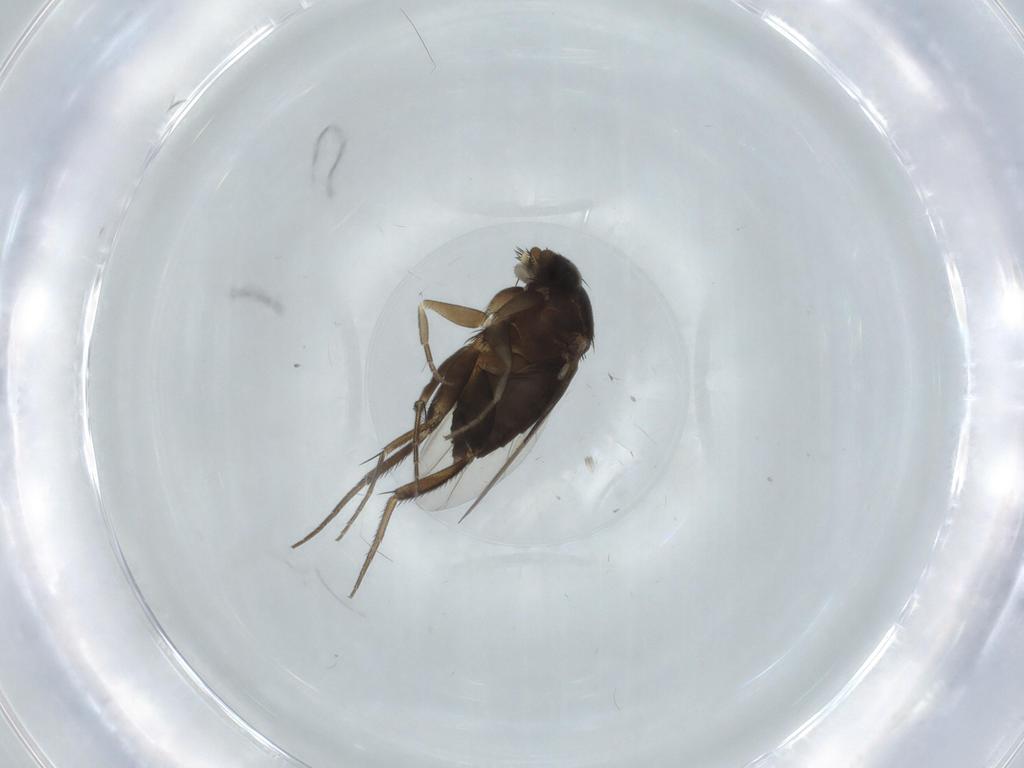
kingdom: Animalia
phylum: Arthropoda
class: Insecta
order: Diptera
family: Phoridae
